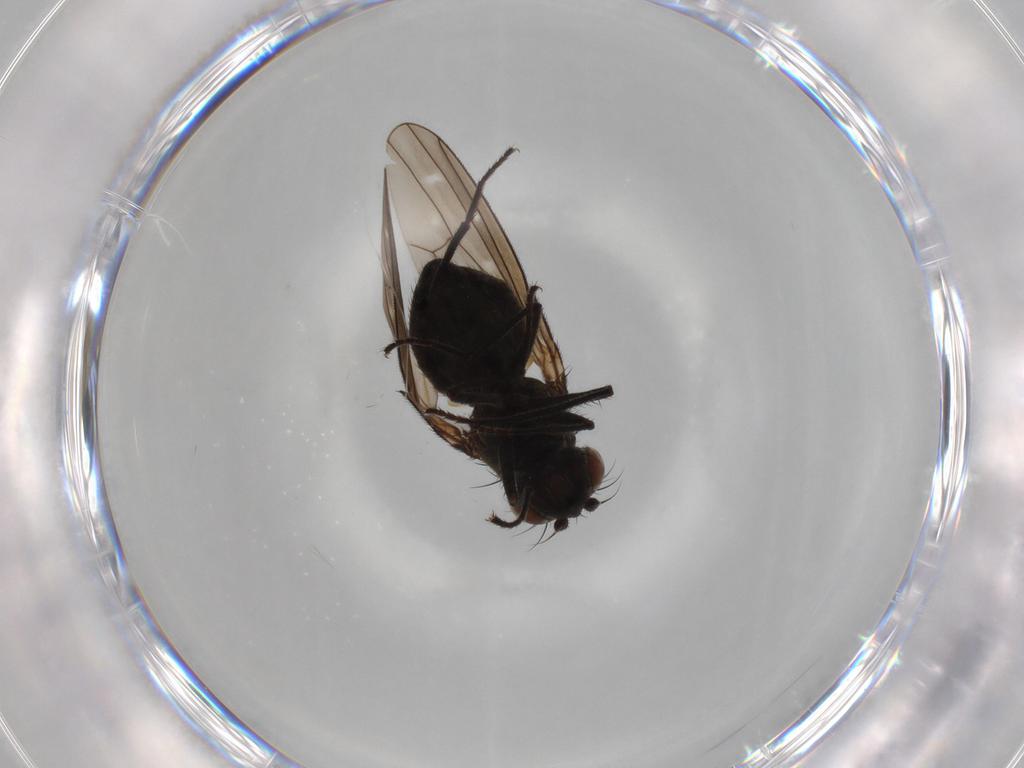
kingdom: Animalia
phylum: Arthropoda
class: Insecta
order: Diptera
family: Ephydridae
